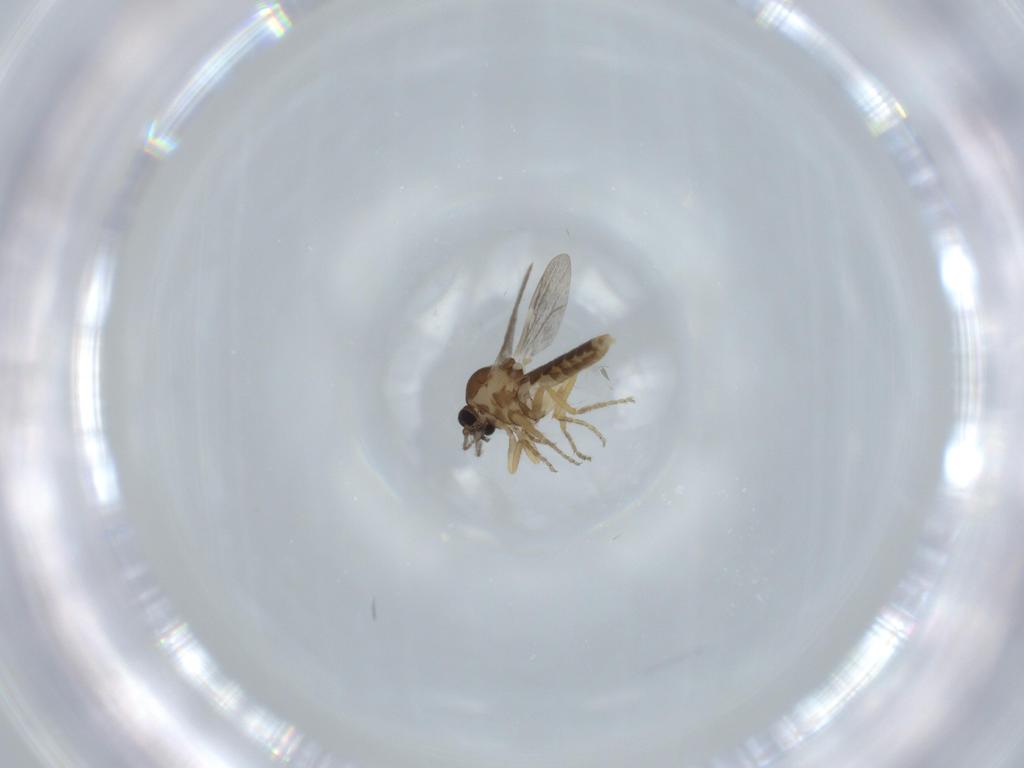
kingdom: Animalia
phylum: Arthropoda
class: Insecta
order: Diptera
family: Ceratopogonidae
